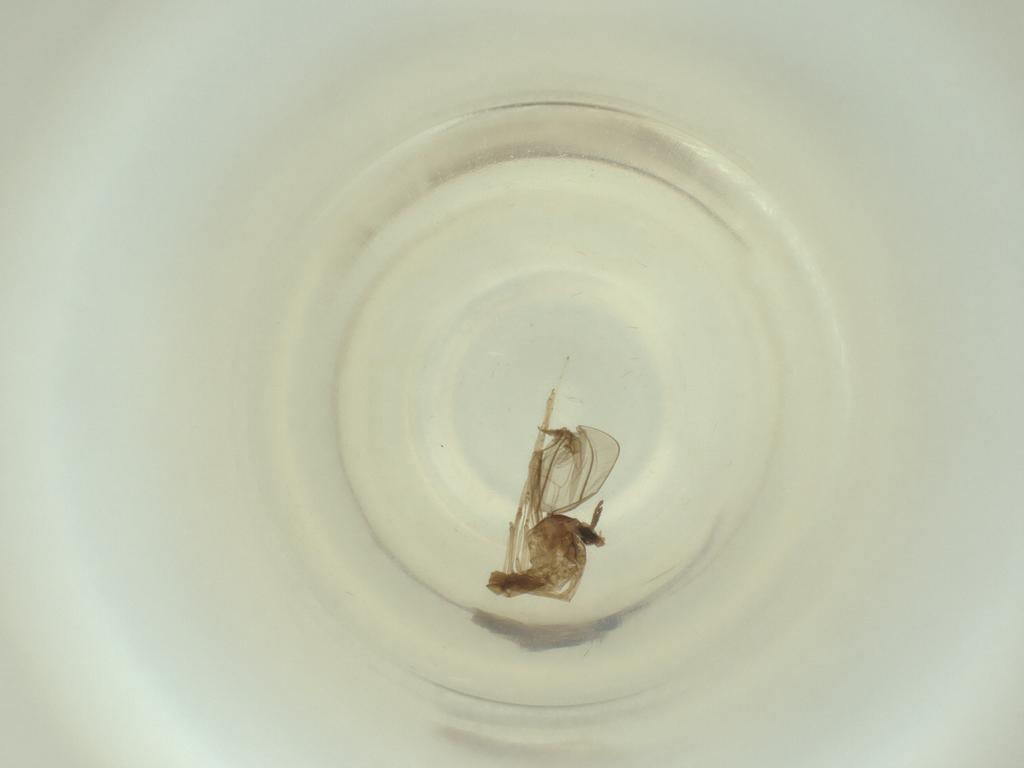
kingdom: Animalia
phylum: Arthropoda
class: Insecta
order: Diptera
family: Cecidomyiidae
